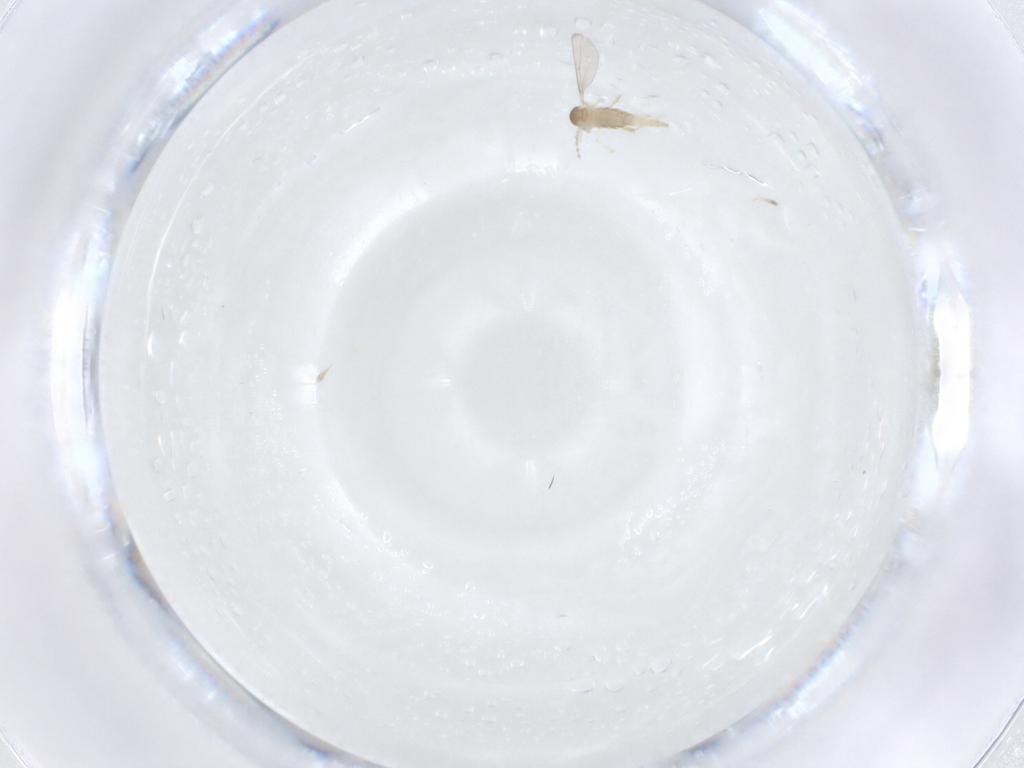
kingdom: Animalia
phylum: Arthropoda
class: Insecta
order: Diptera
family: Cecidomyiidae
